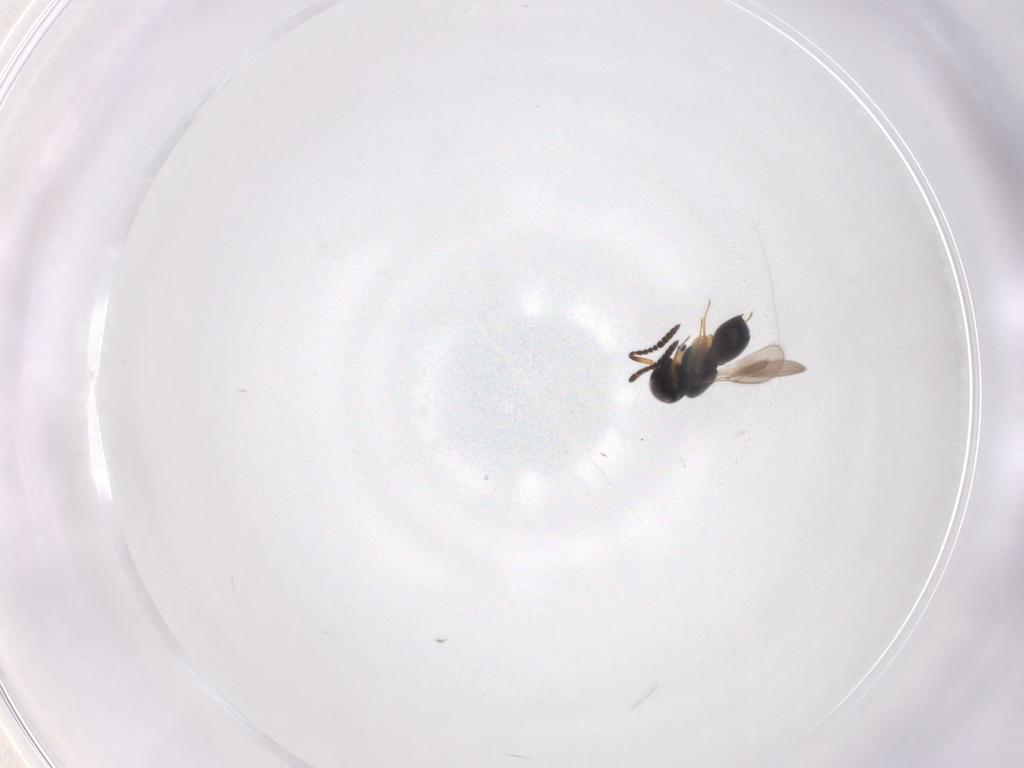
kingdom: Animalia
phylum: Arthropoda
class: Insecta
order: Hymenoptera
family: Scelionidae
